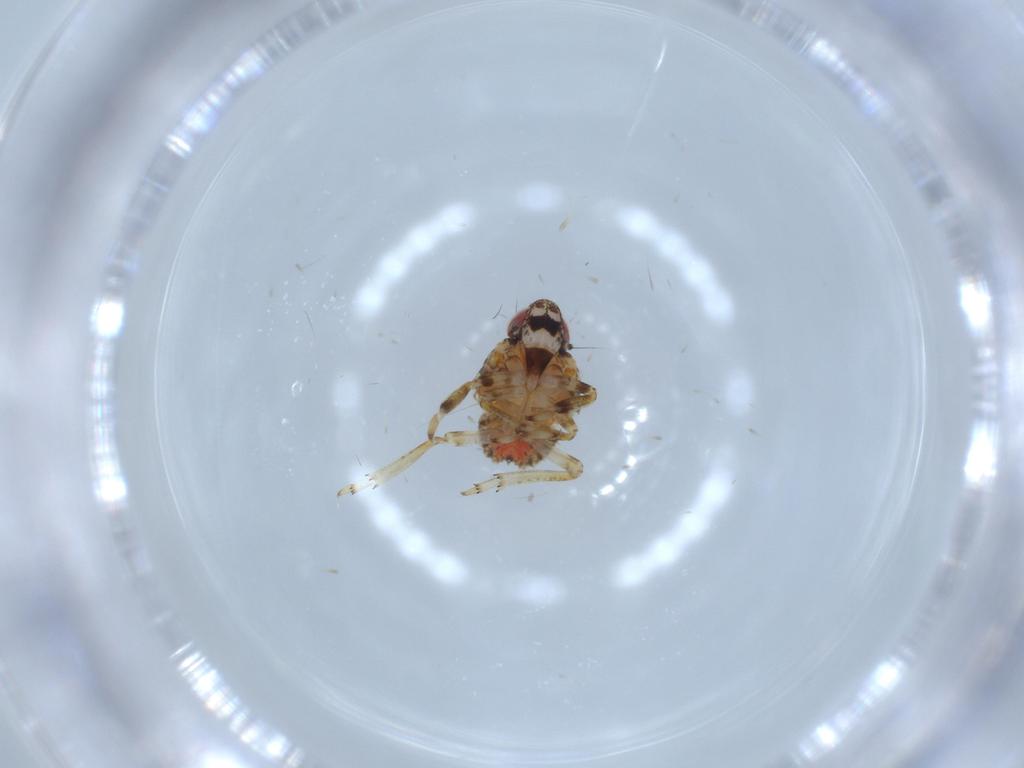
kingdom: Animalia
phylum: Arthropoda
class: Insecta
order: Hemiptera
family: Issidae
